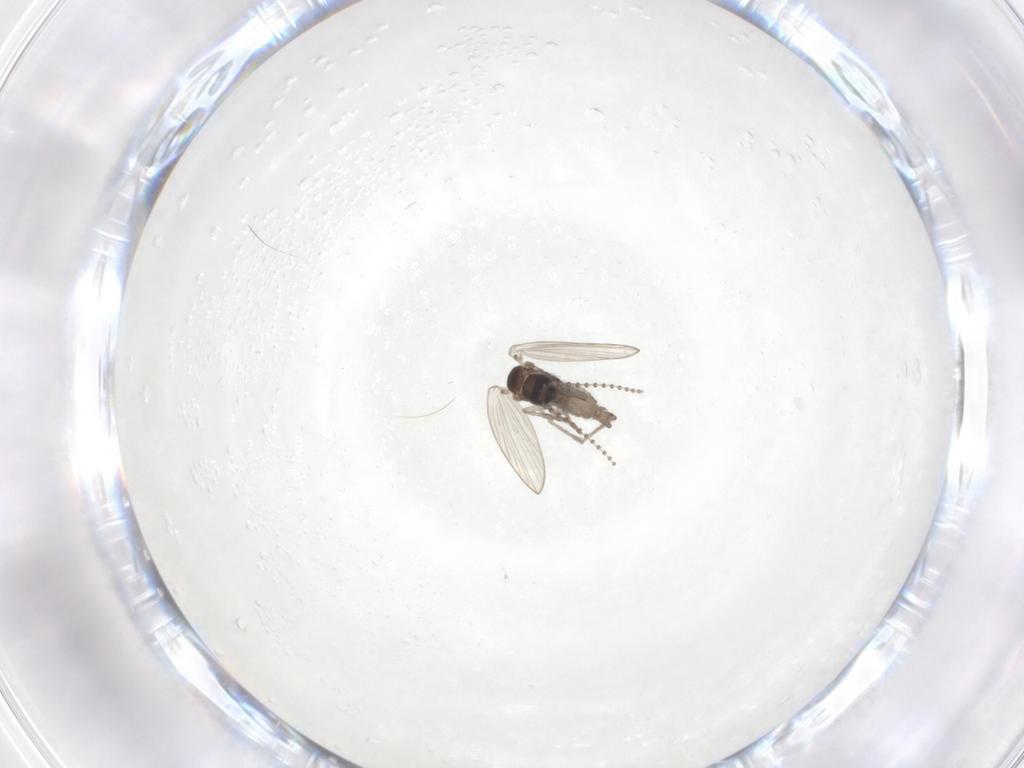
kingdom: Animalia
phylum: Arthropoda
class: Insecta
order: Diptera
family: Psychodidae
